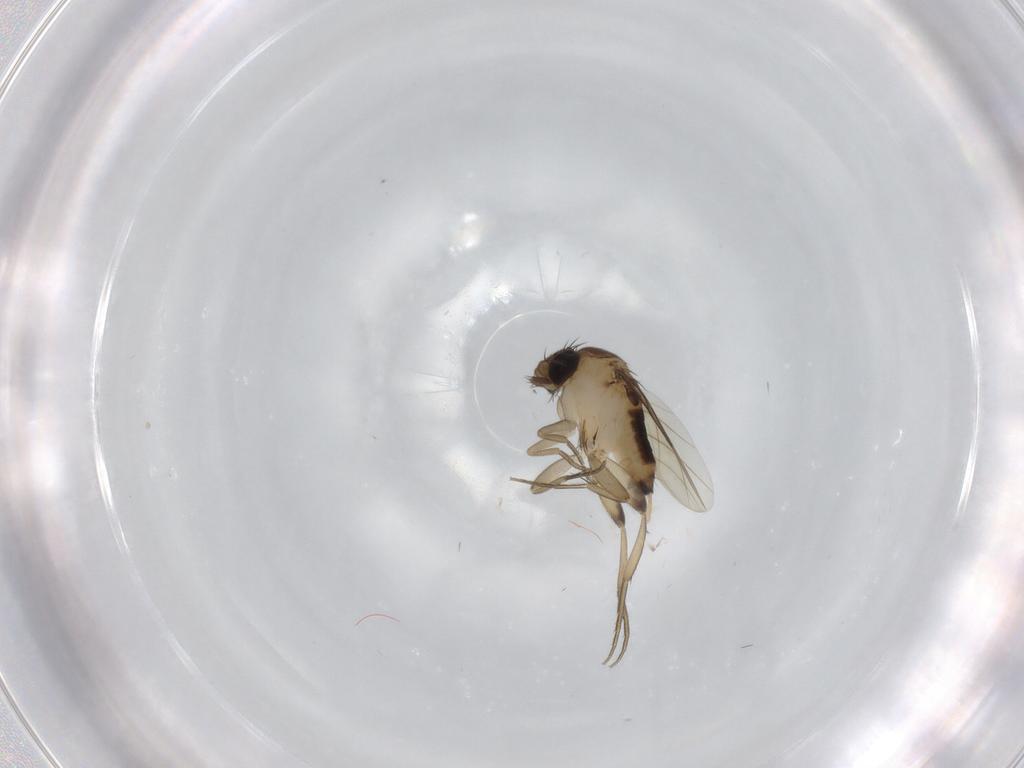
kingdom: Animalia
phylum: Arthropoda
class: Insecta
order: Diptera
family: Phoridae
